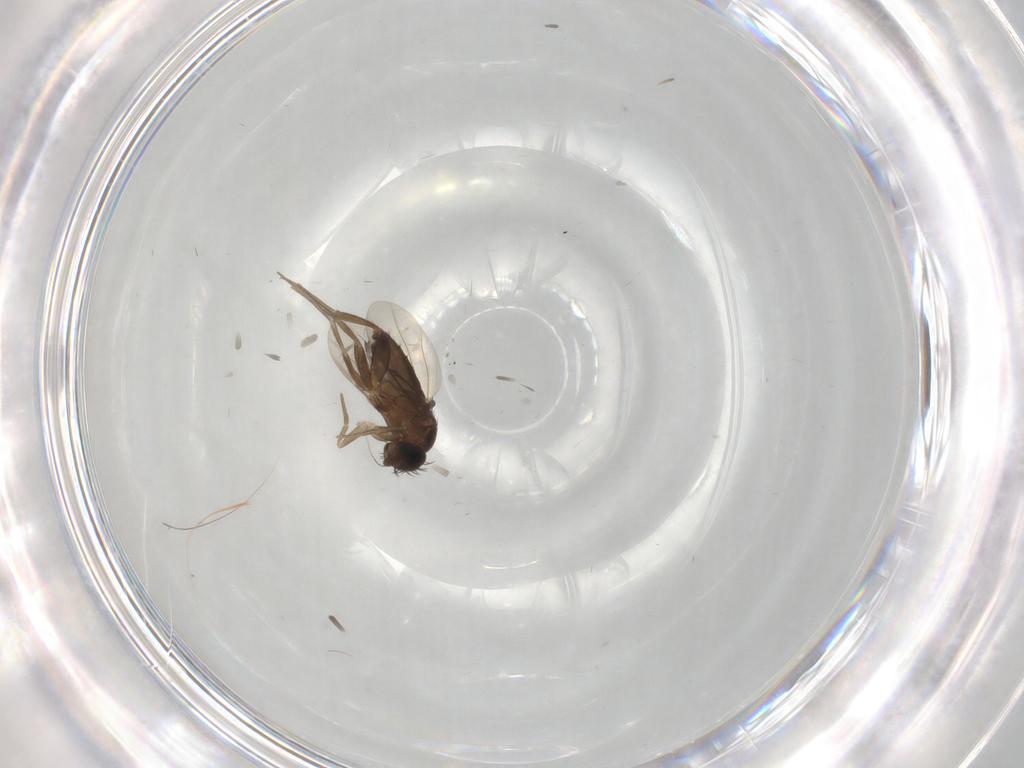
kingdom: Animalia
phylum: Arthropoda
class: Insecta
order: Diptera
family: Phoridae
